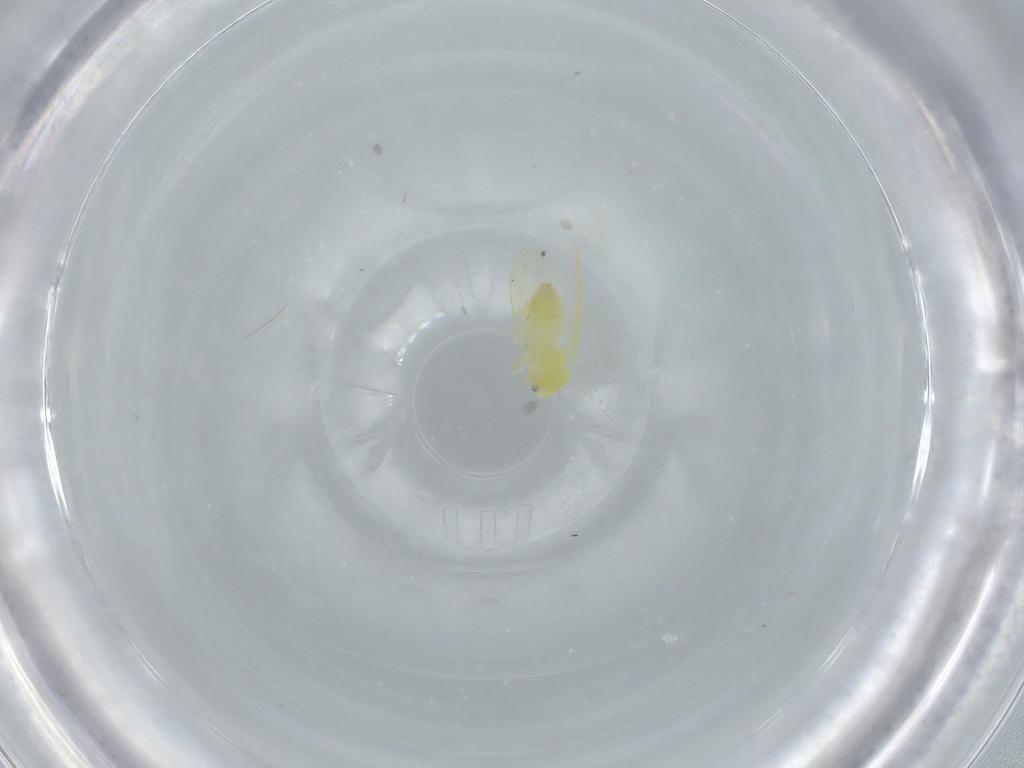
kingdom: Animalia
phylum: Arthropoda
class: Insecta
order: Hemiptera
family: Aleyrodidae
